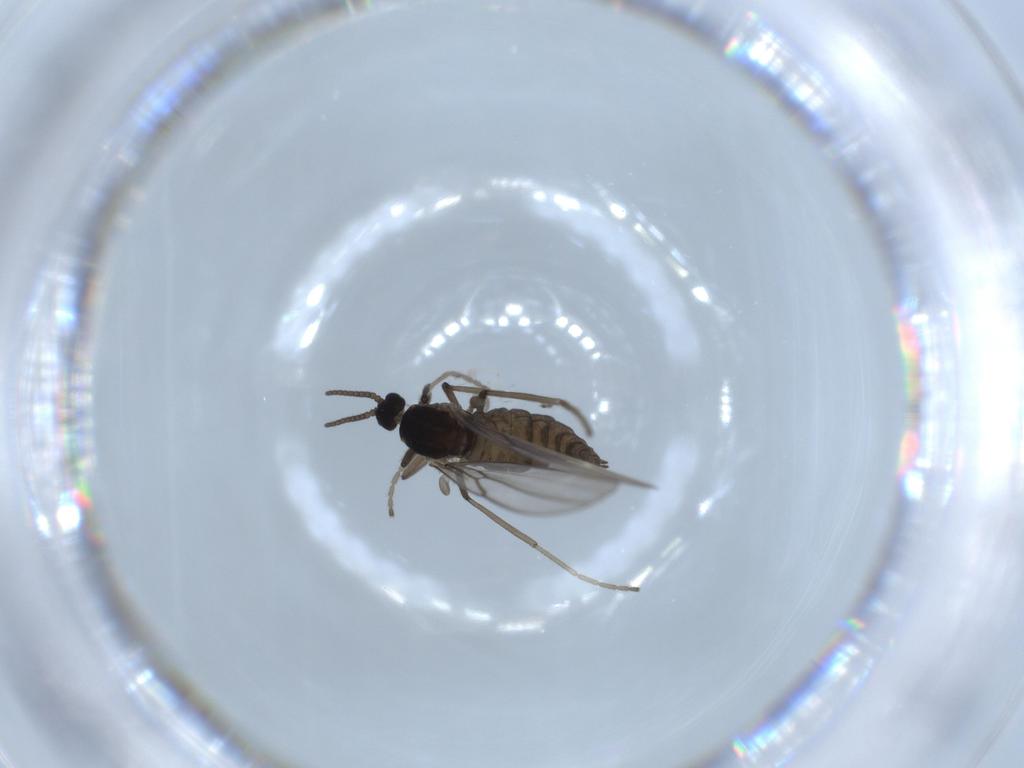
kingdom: Animalia
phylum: Arthropoda
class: Insecta
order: Diptera
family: Cecidomyiidae
